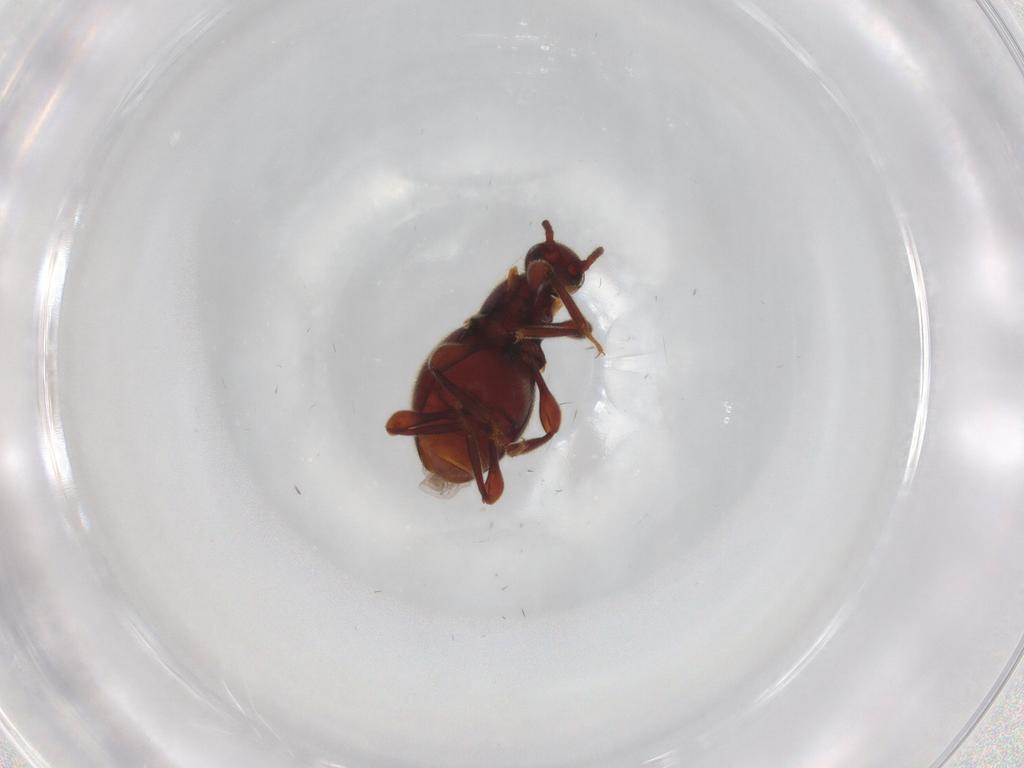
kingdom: Animalia
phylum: Arthropoda
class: Insecta
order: Coleoptera
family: Staphylinidae
